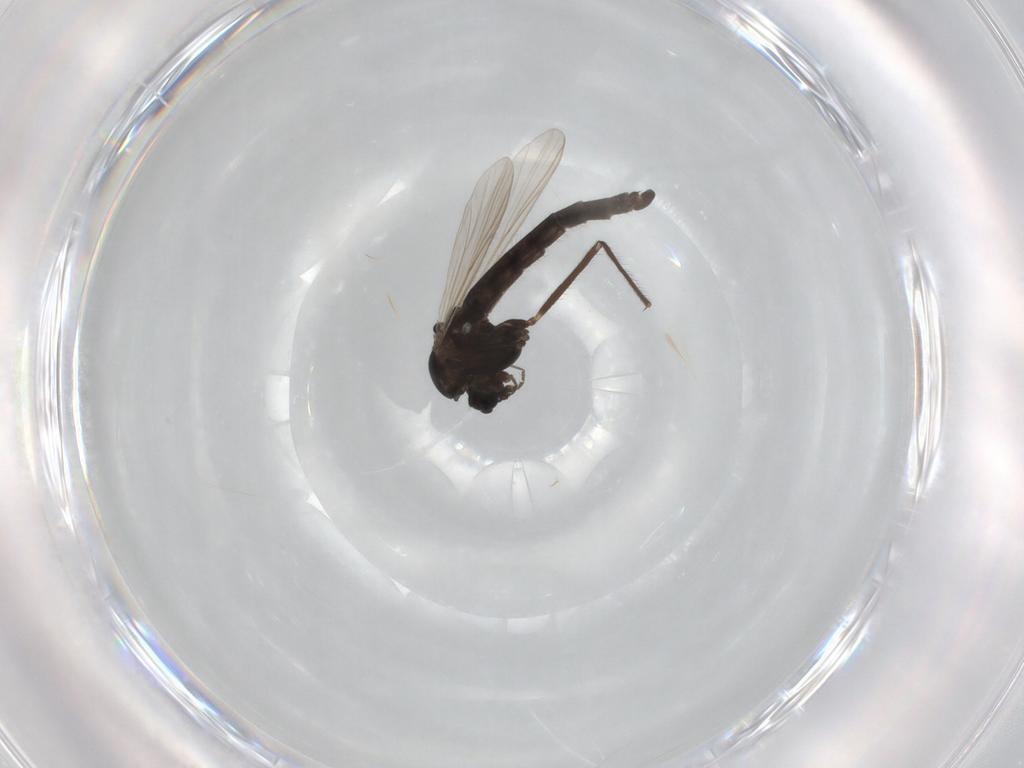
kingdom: Animalia
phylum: Arthropoda
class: Insecta
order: Diptera
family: Chironomidae
